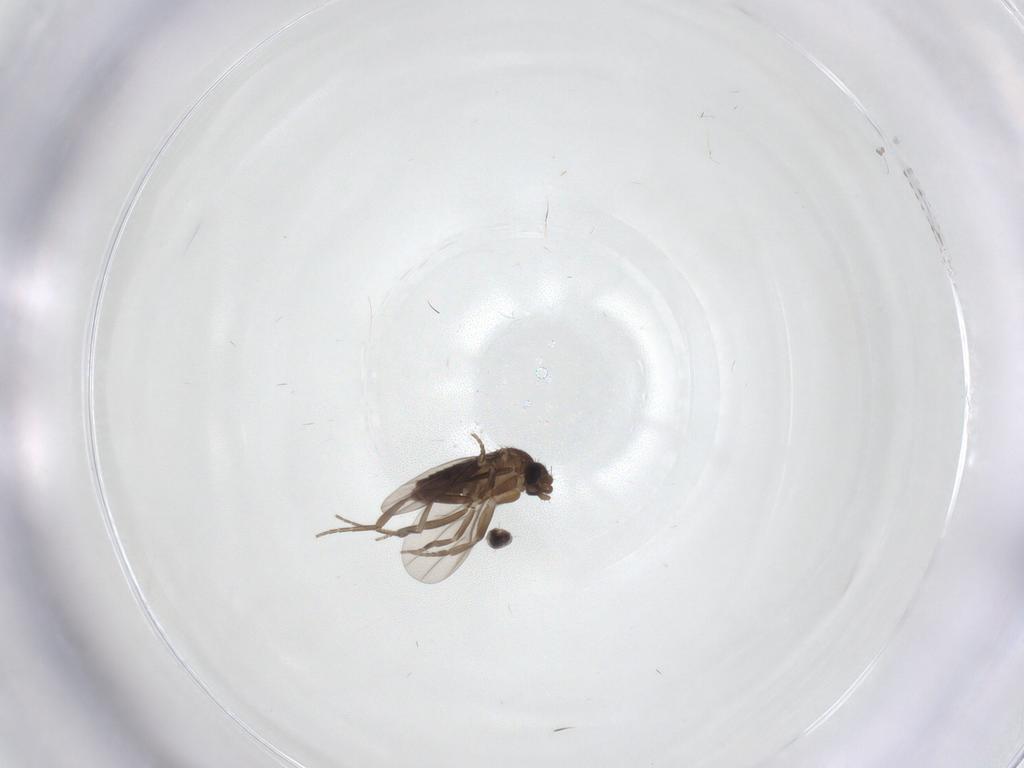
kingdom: Animalia
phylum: Arthropoda
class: Insecta
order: Diptera
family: Phoridae
